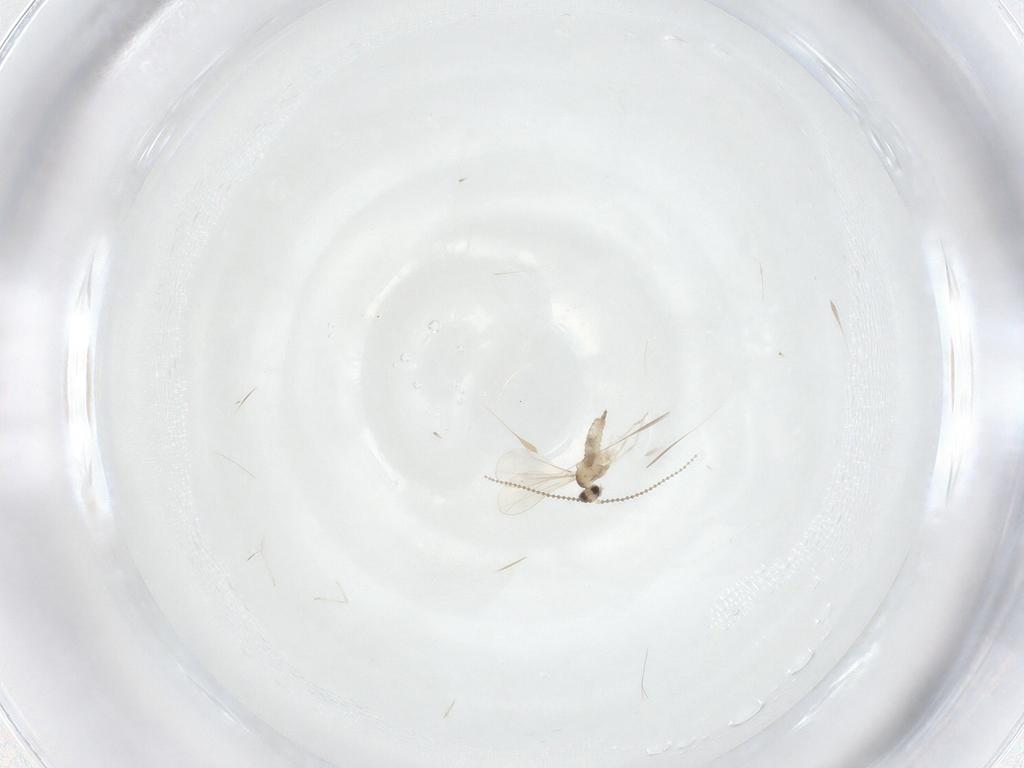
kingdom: Animalia
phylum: Arthropoda
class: Insecta
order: Diptera
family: Cecidomyiidae
